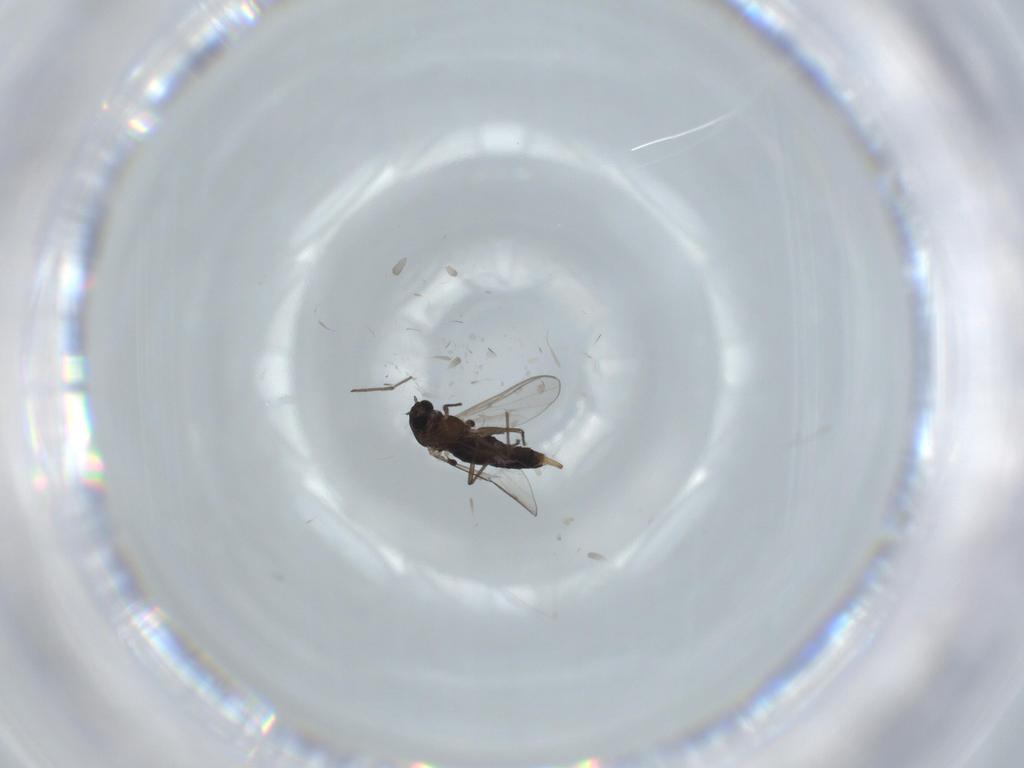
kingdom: Animalia
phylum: Arthropoda
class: Insecta
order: Diptera
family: Chironomidae
